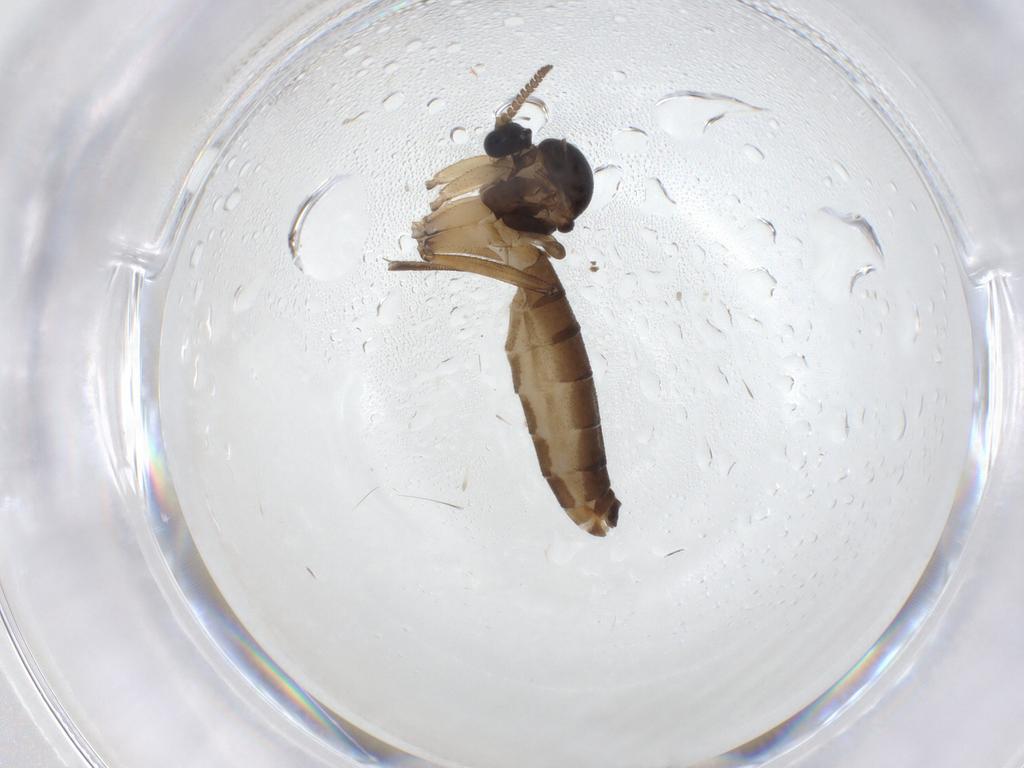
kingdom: Animalia
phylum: Arthropoda
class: Insecta
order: Diptera
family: Mycetophilidae
